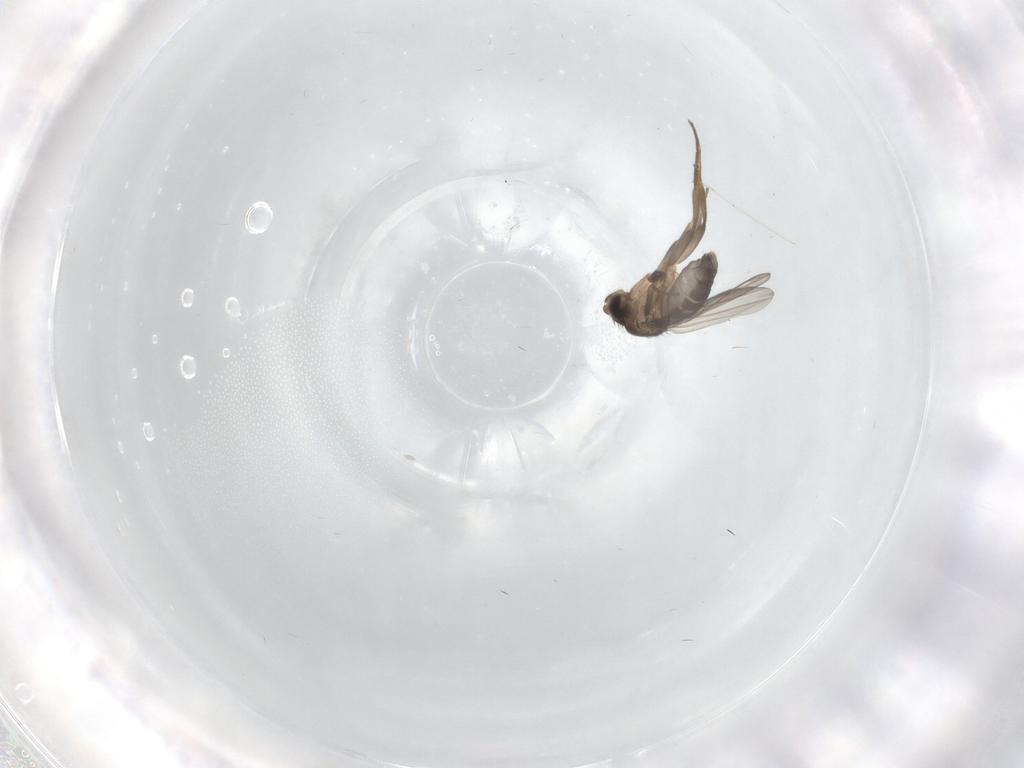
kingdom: Animalia
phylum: Arthropoda
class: Insecta
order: Diptera
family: Phoridae
